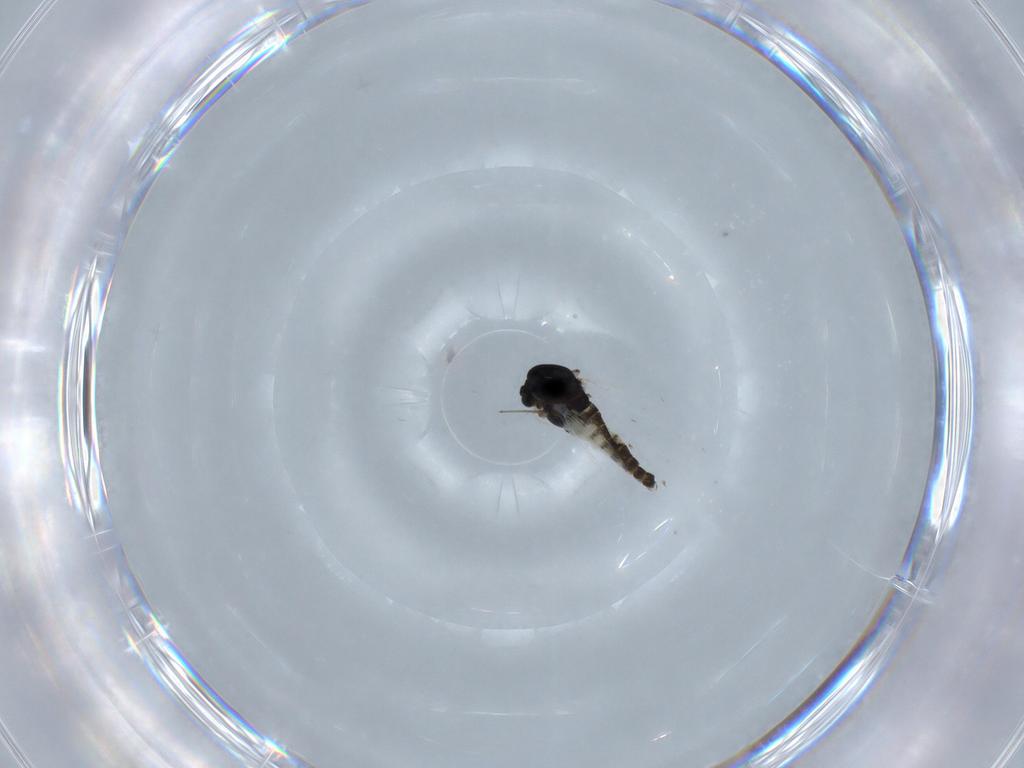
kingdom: Animalia
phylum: Arthropoda
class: Insecta
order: Diptera
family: Chironomidae
